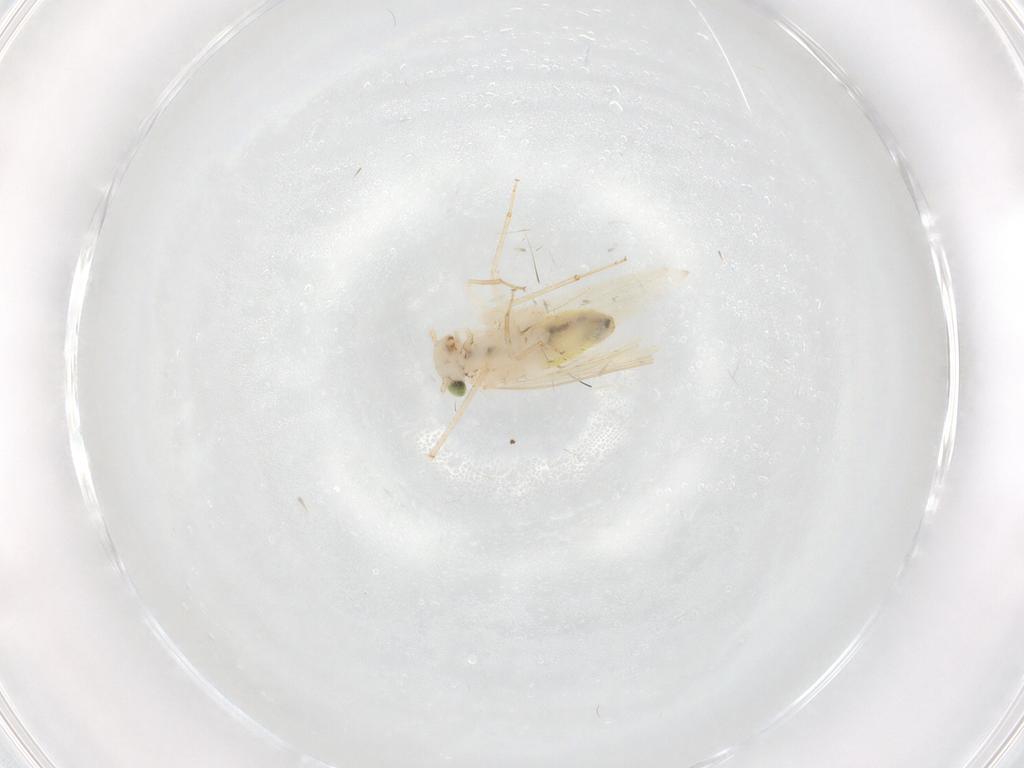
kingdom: Animalia
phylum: Arthropoda
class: Insecta
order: Psocodea
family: Lepidopsocidae
